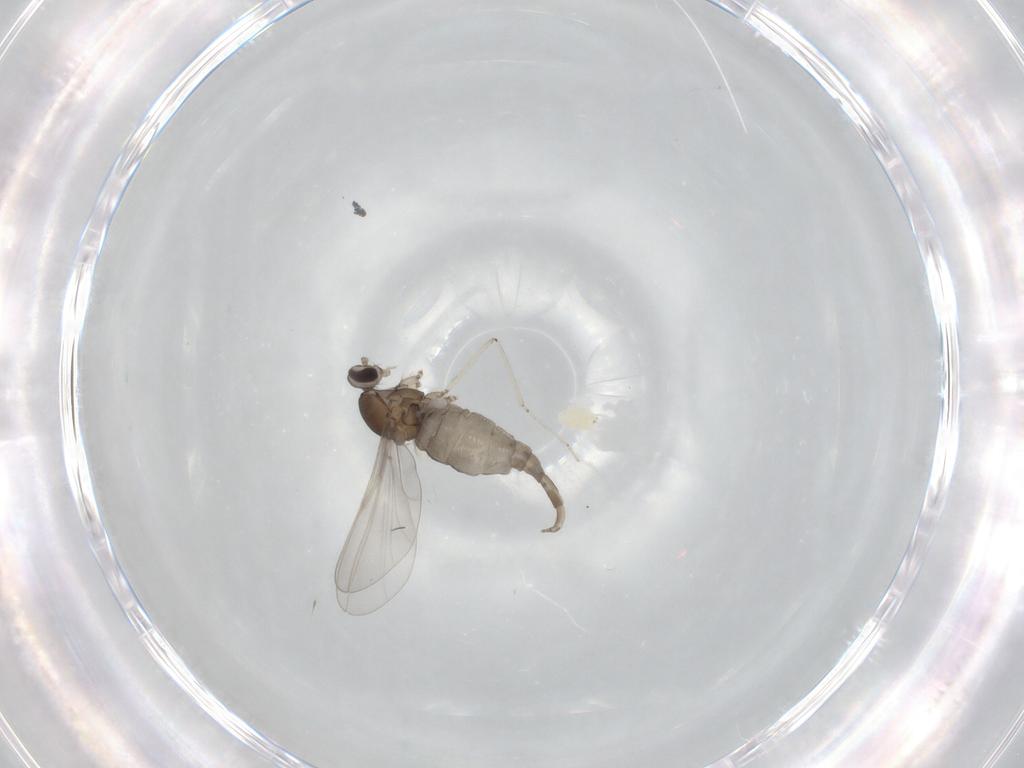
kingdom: Animalia
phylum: Arthropoda
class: Insecta
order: Diptera
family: Cecidomyiidae
